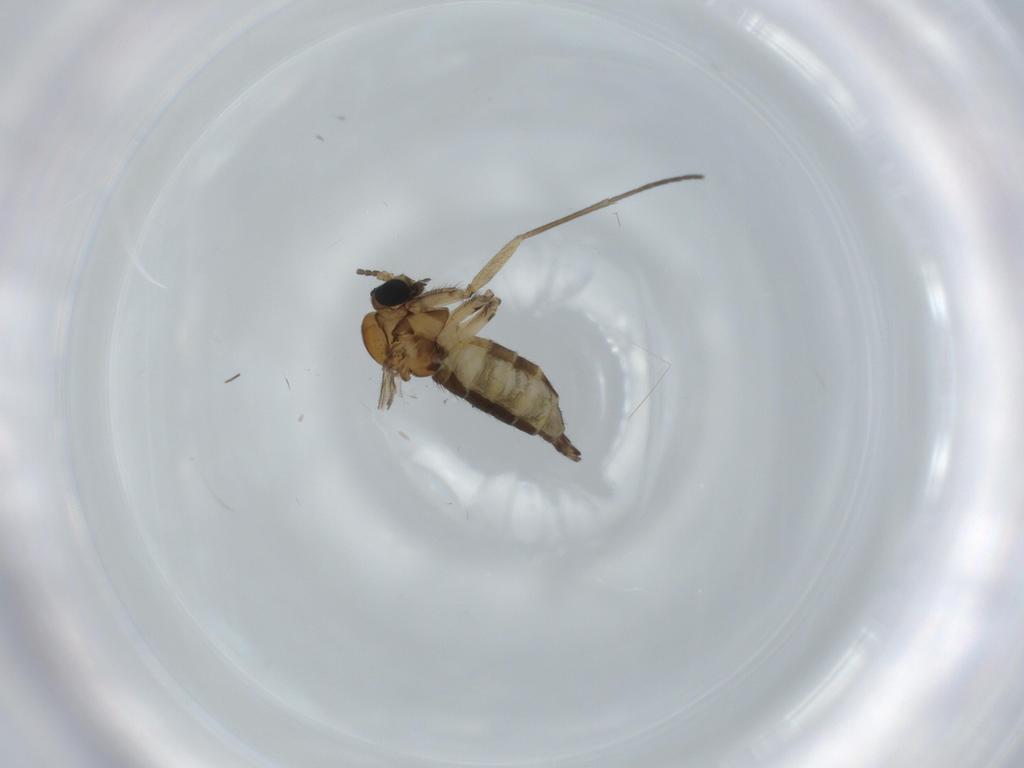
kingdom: Animalia
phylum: Arthropoda
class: Insecta
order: Diptera
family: Sciaridae
